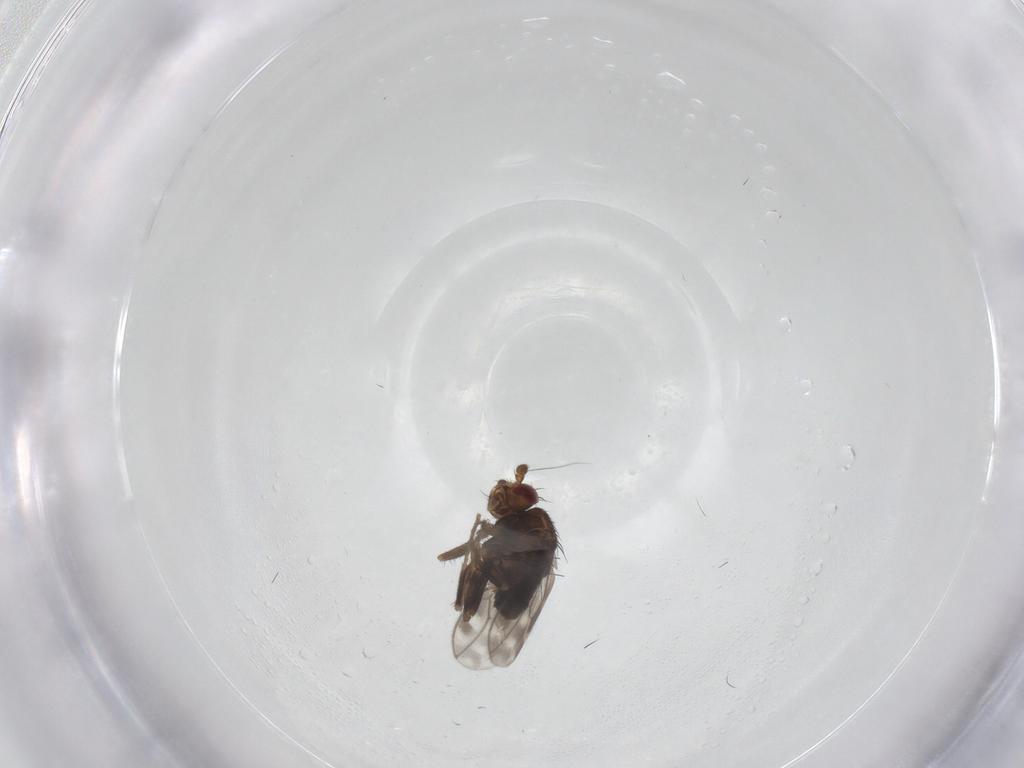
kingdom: Animalia
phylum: Arthropoda
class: Insecta
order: Diptera
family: Sphaeroceridae
